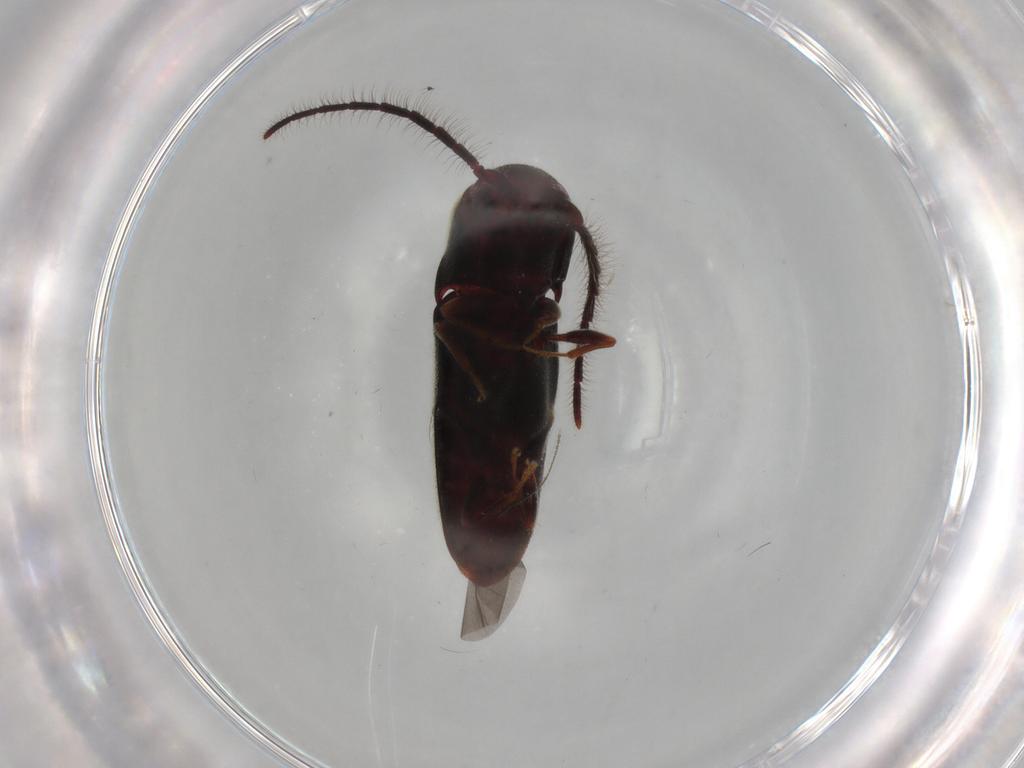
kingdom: Animalia
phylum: Arthropoda
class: Insecta
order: Coleoptera
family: Eucnemidae
